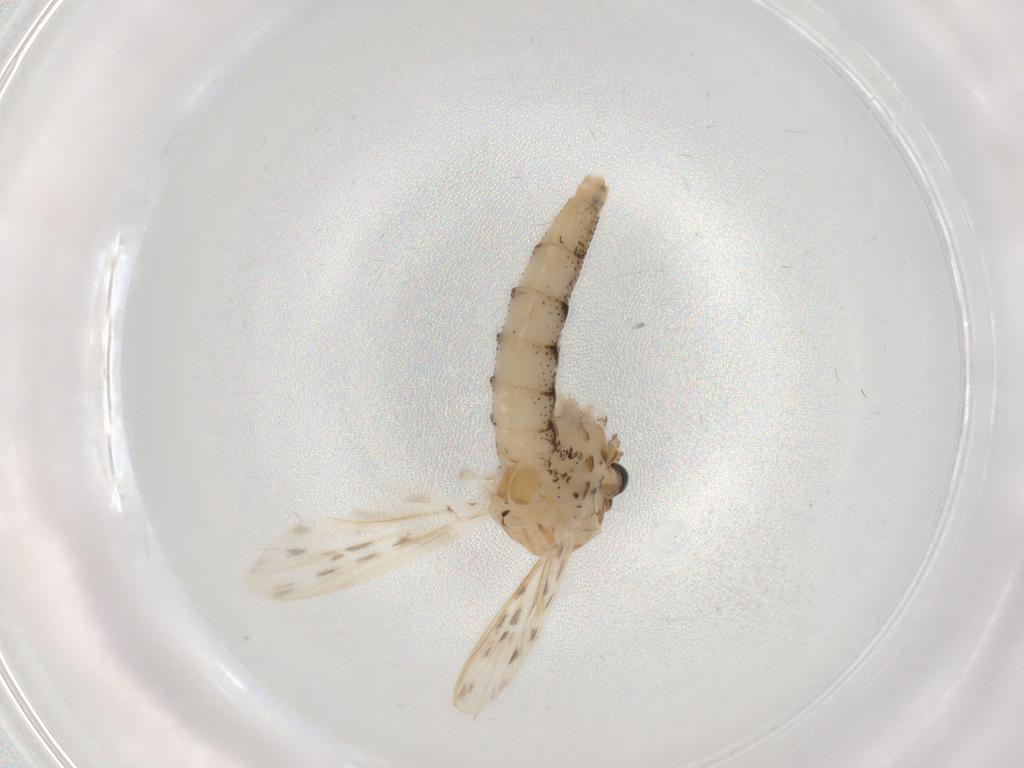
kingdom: Animalia
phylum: Arthropoda
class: Insecta
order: Diptera
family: Chaoboridae
